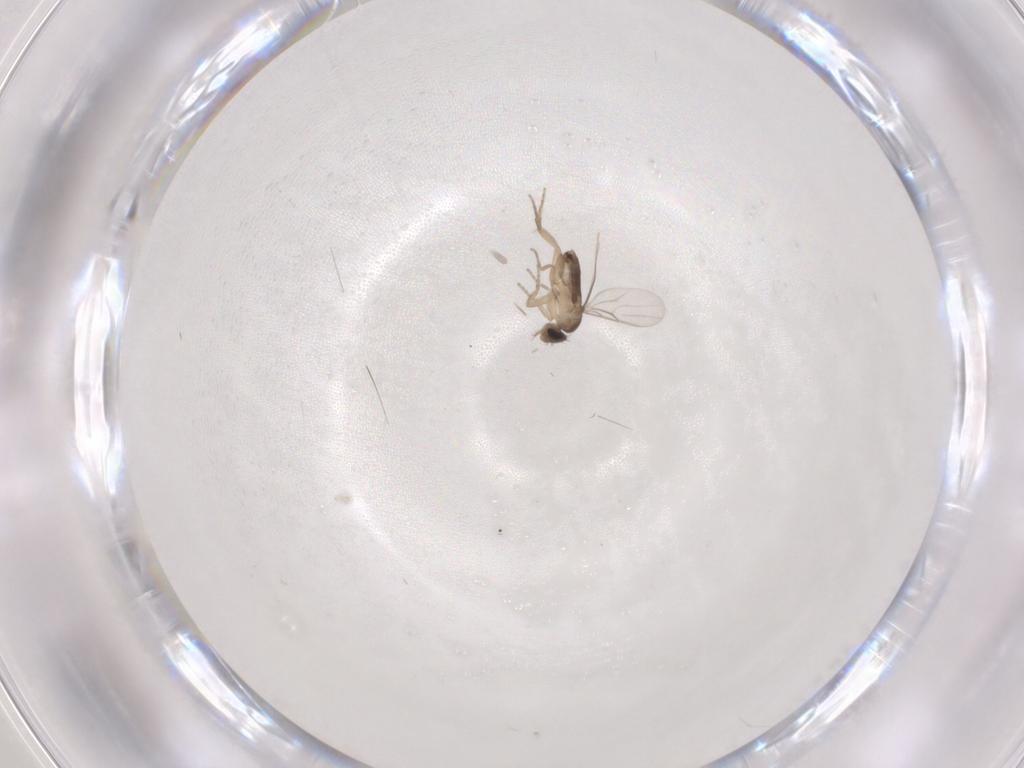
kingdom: Animalia
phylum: Arthropoda
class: Insecta
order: Diptera
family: Phoridae
